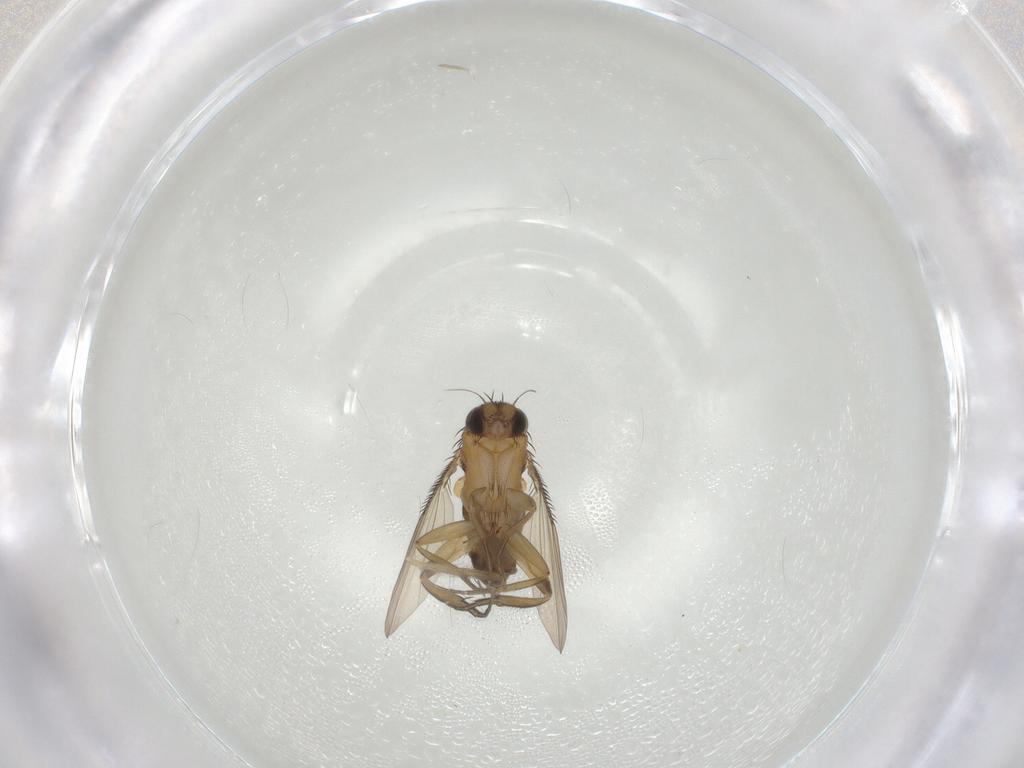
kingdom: Animalia
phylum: Arthropoda
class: Insecta
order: Diptera
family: Chironomidae
